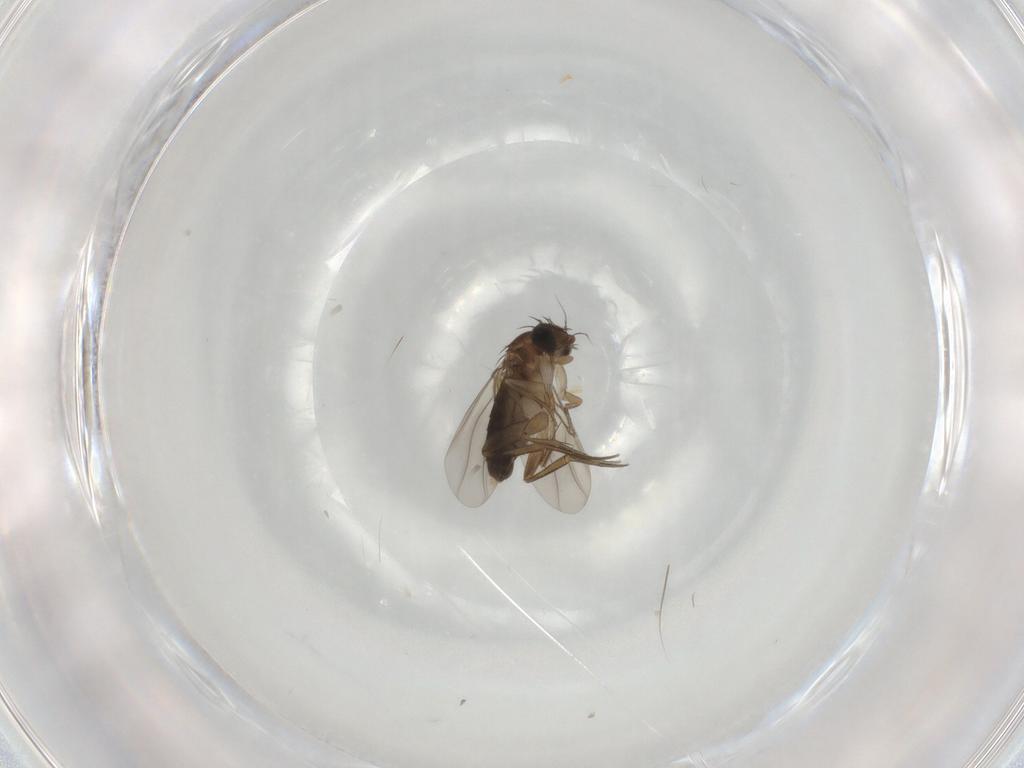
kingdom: Animalia
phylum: Arthropoda
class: Insecta
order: Diptera
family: Phoridae
